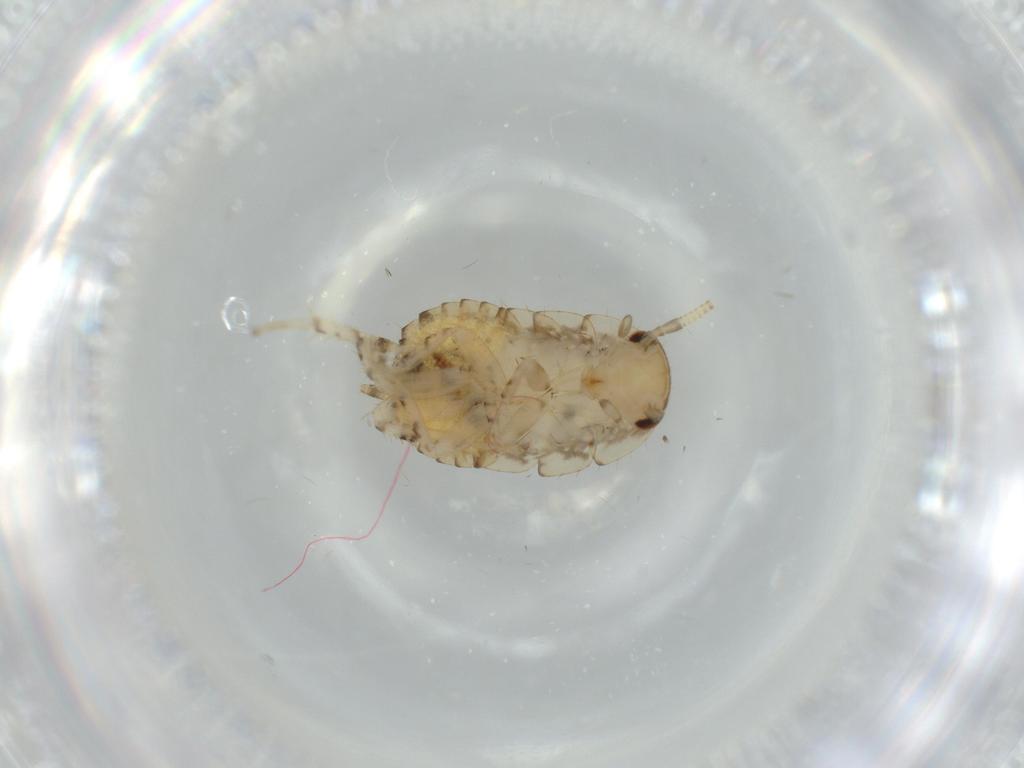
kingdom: Animalia
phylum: Arthropoda
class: Insecta
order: Blattodea
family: Ectobiidae
